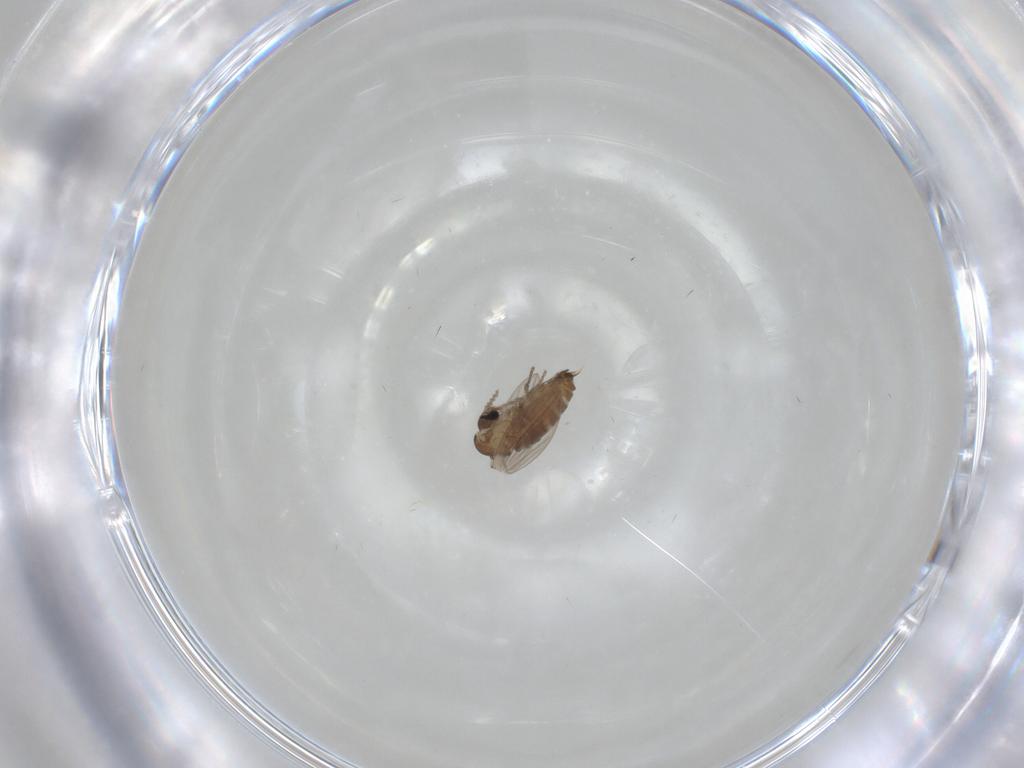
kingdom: Animalia
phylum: Arthropoda
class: Insecta
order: Diptera
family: Psychodidae
